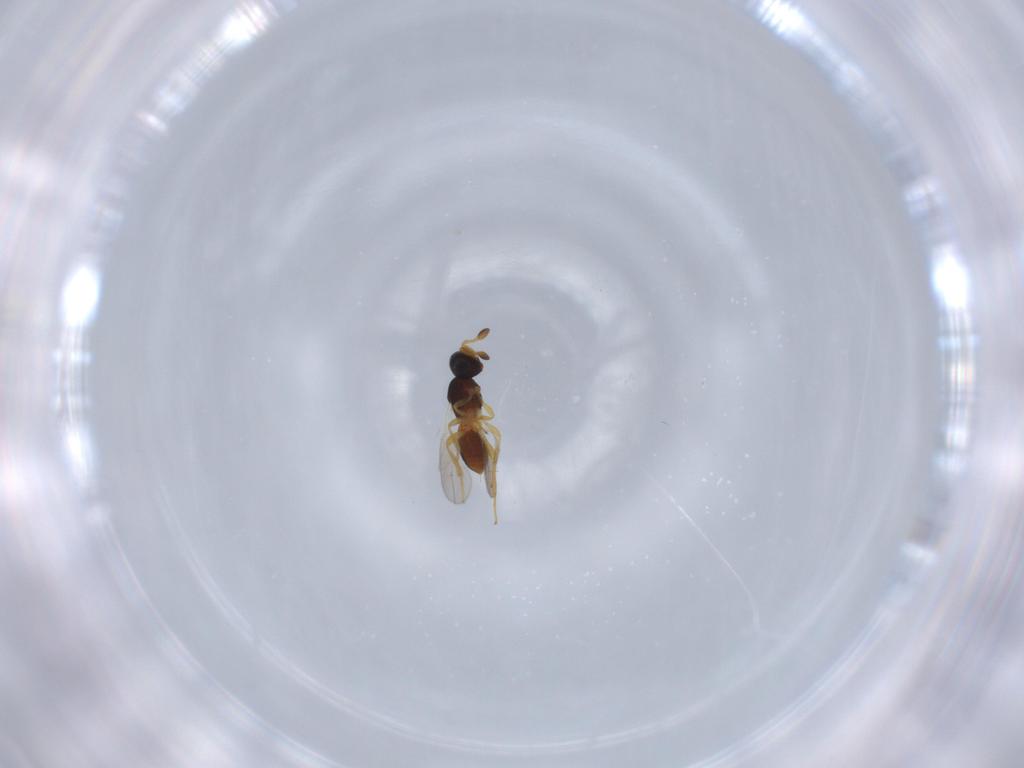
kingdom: Animalia
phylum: Arthropoda
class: Insecta
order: Hymenoptera
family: Platygastridae
